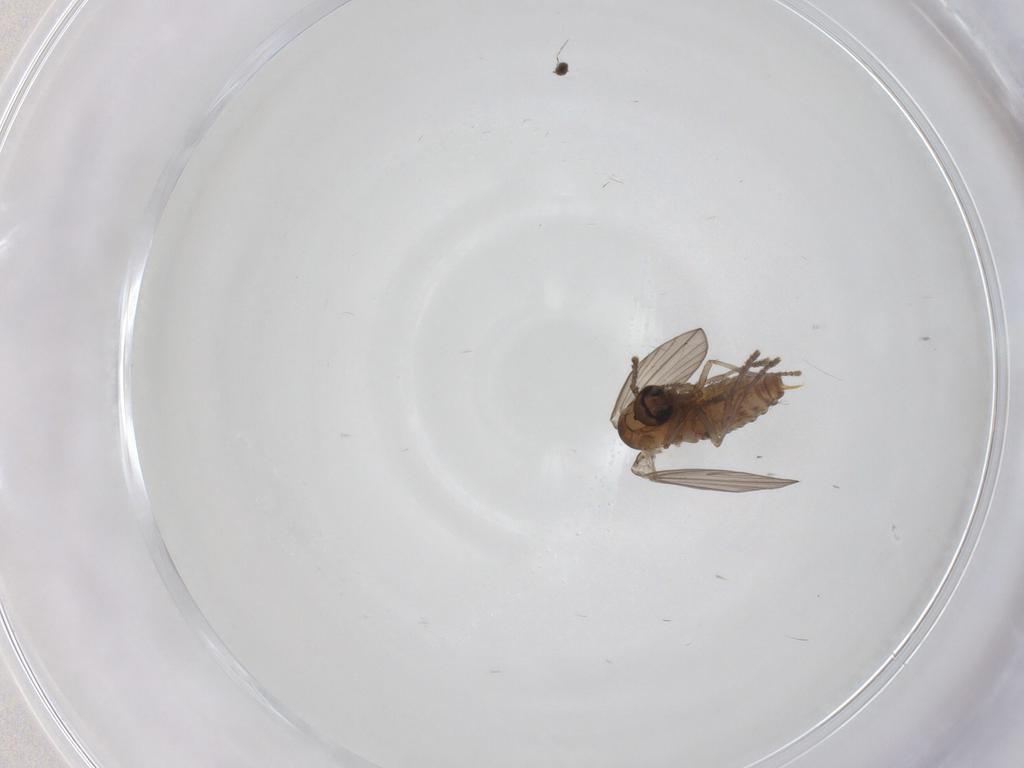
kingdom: Animalia
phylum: Arthropoda
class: Insecta
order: Diptera
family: Psychodidae
